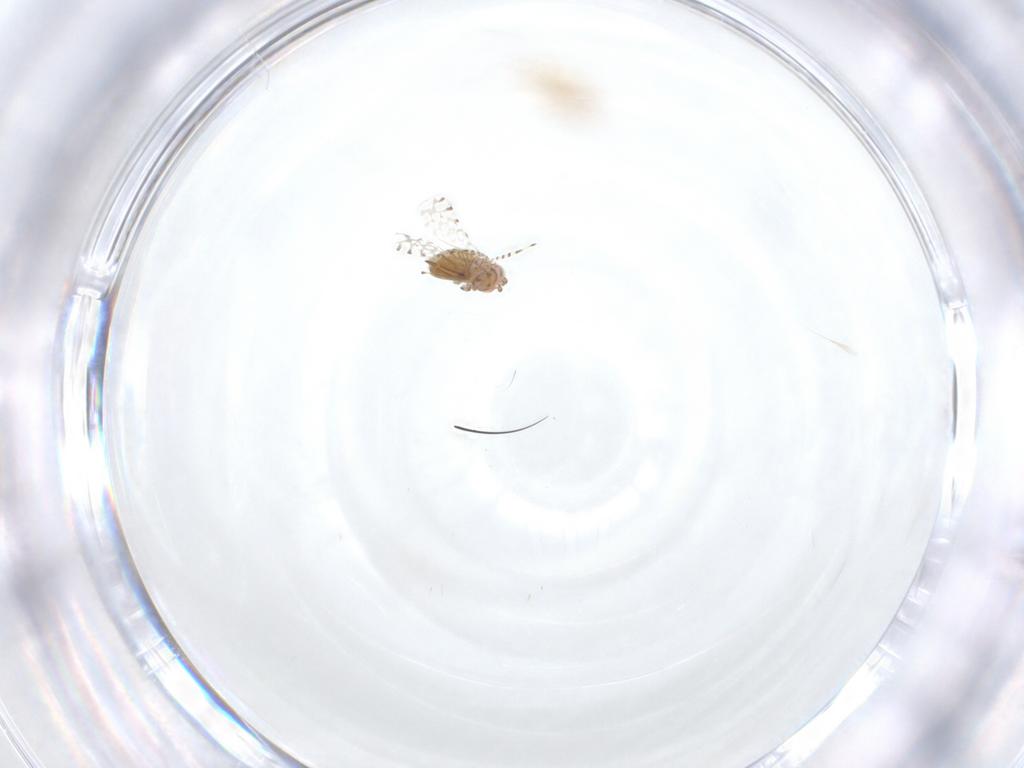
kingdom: Animalia
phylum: Arthropoda
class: Insecta
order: Hymenoptera
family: Aphelinidae
